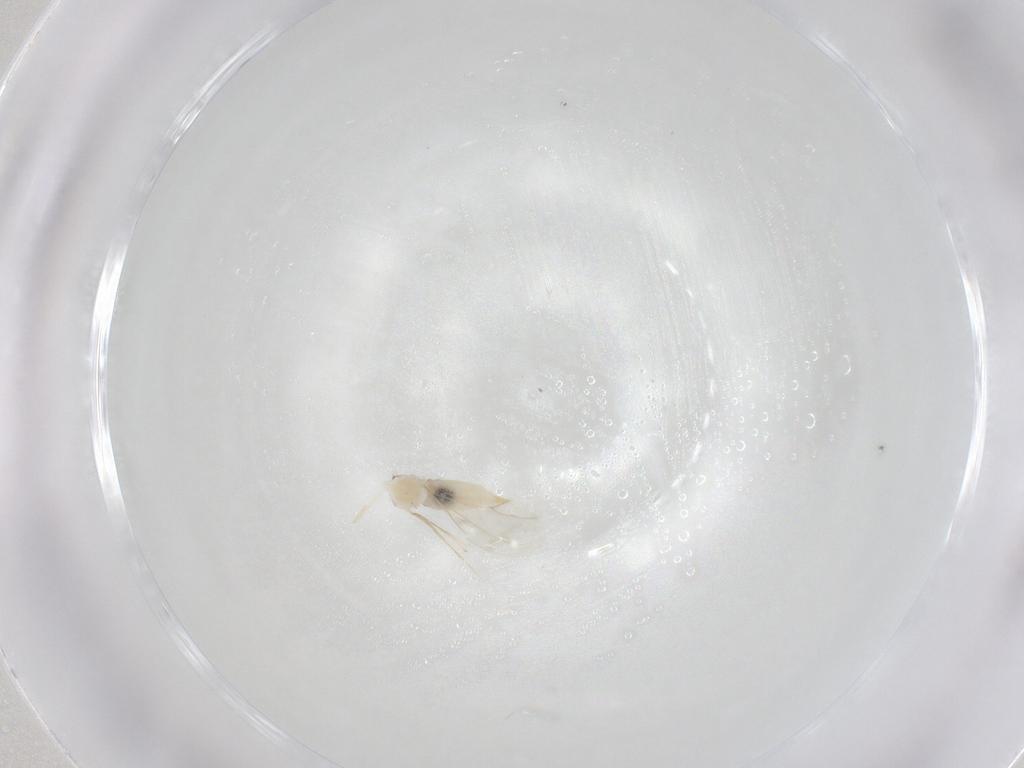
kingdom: Animalia
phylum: Arthropoda
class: Insecta
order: Diptera
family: Cecidomyiidae
